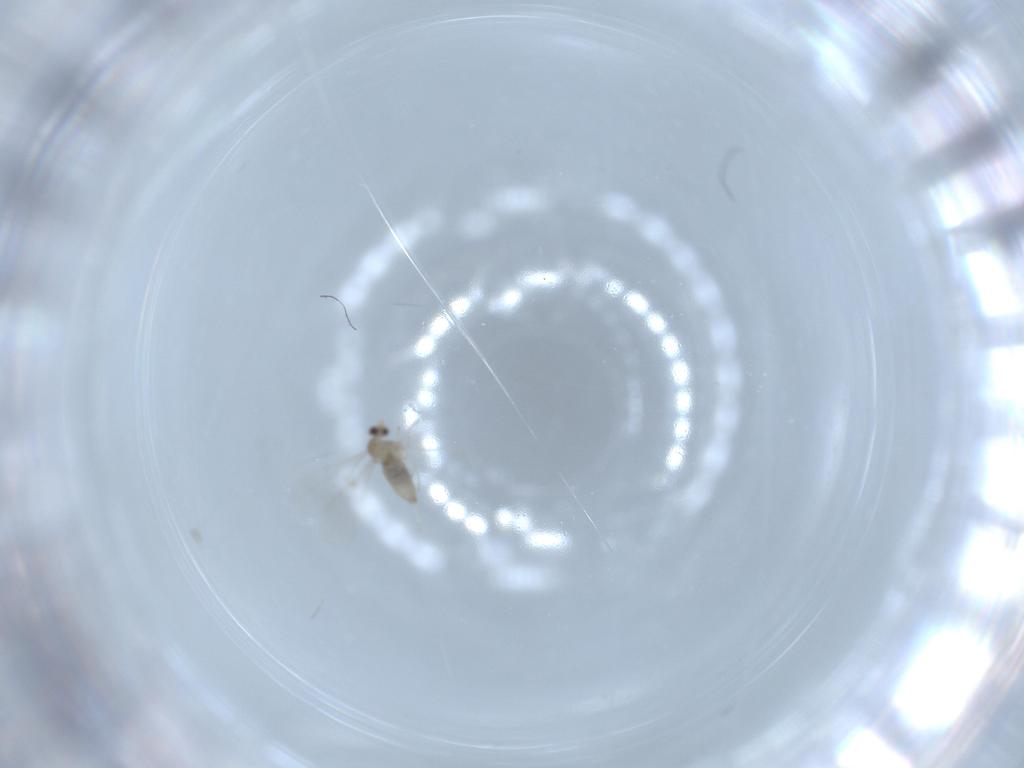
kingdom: Animalia
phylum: Arthropoda
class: Insecta
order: Diptera
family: Cecidomyiidae
